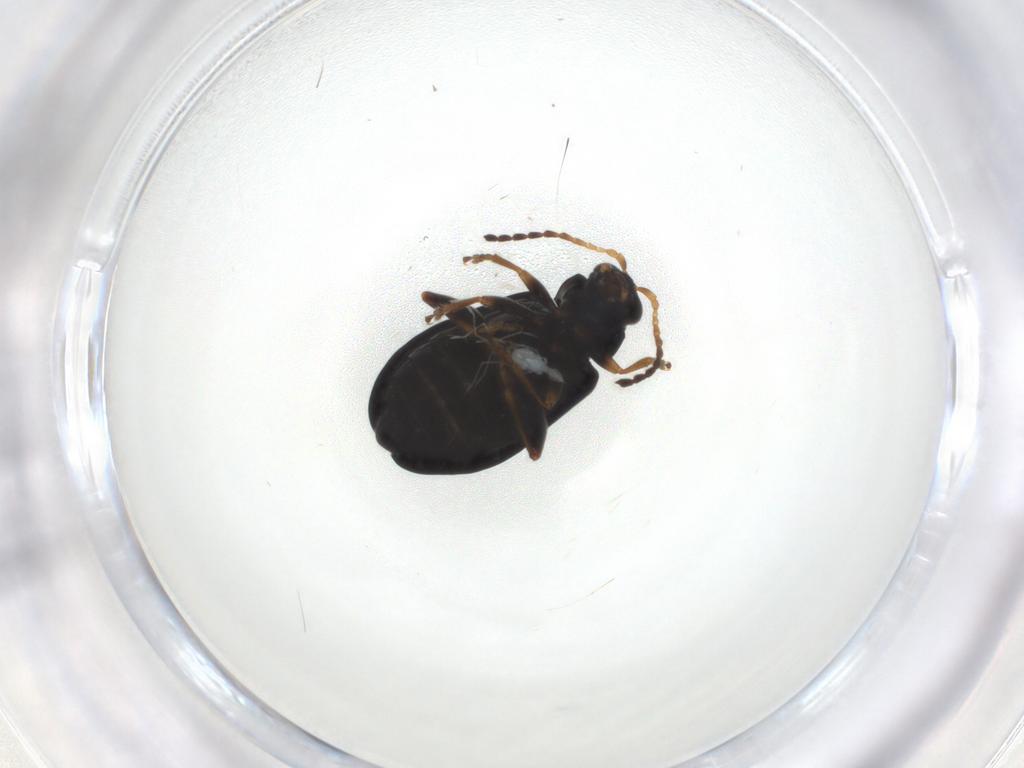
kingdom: Animalia
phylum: Arthropoda
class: Insecta
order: Coleoptera
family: Chrysomelidae
